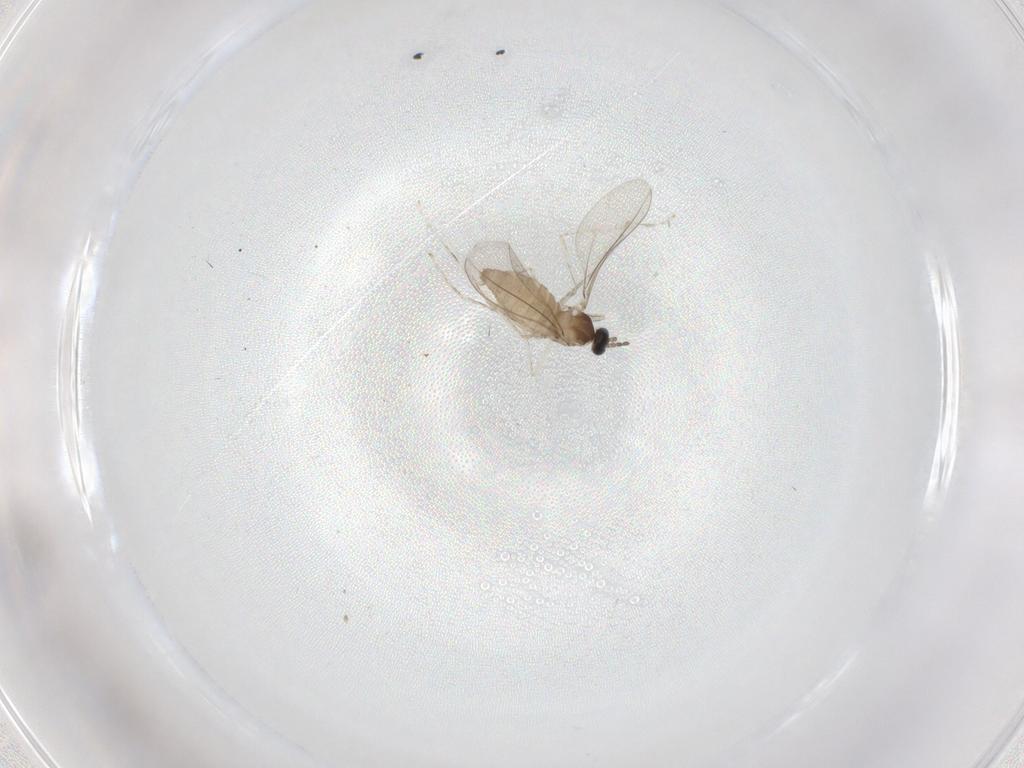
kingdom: Animalia
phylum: Arthropoda
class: Insecta
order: Diptera
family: Cecidomyiidae
